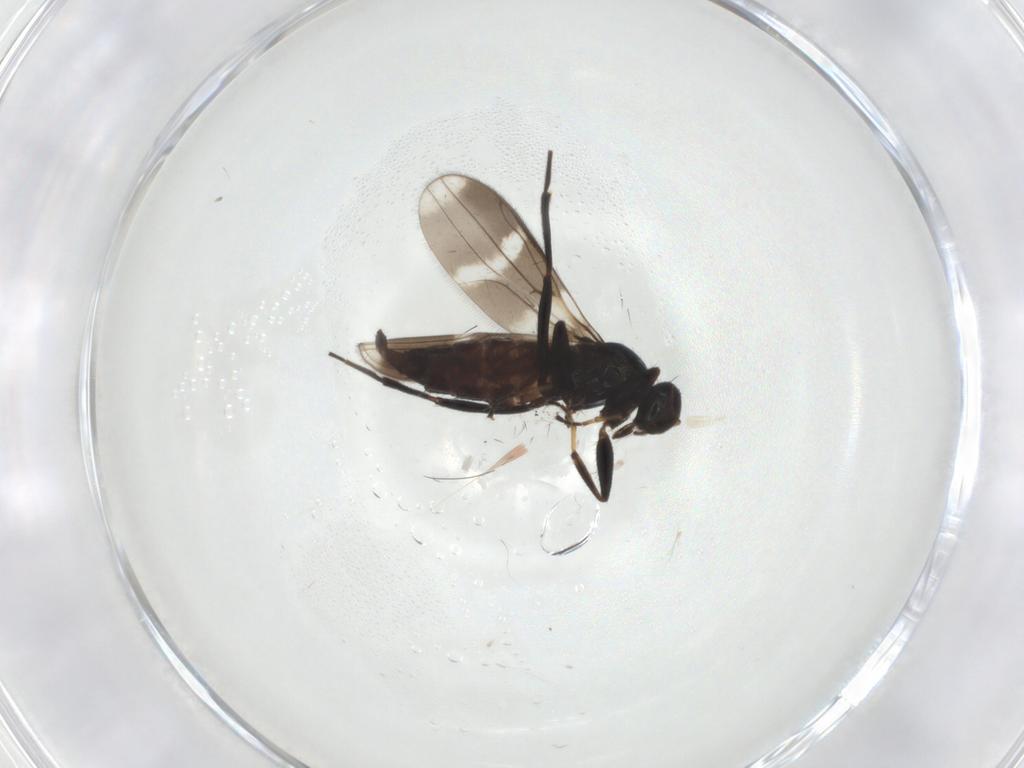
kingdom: Animalia
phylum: Arthropoda
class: Insecta
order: Diptera
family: Hybotidae
